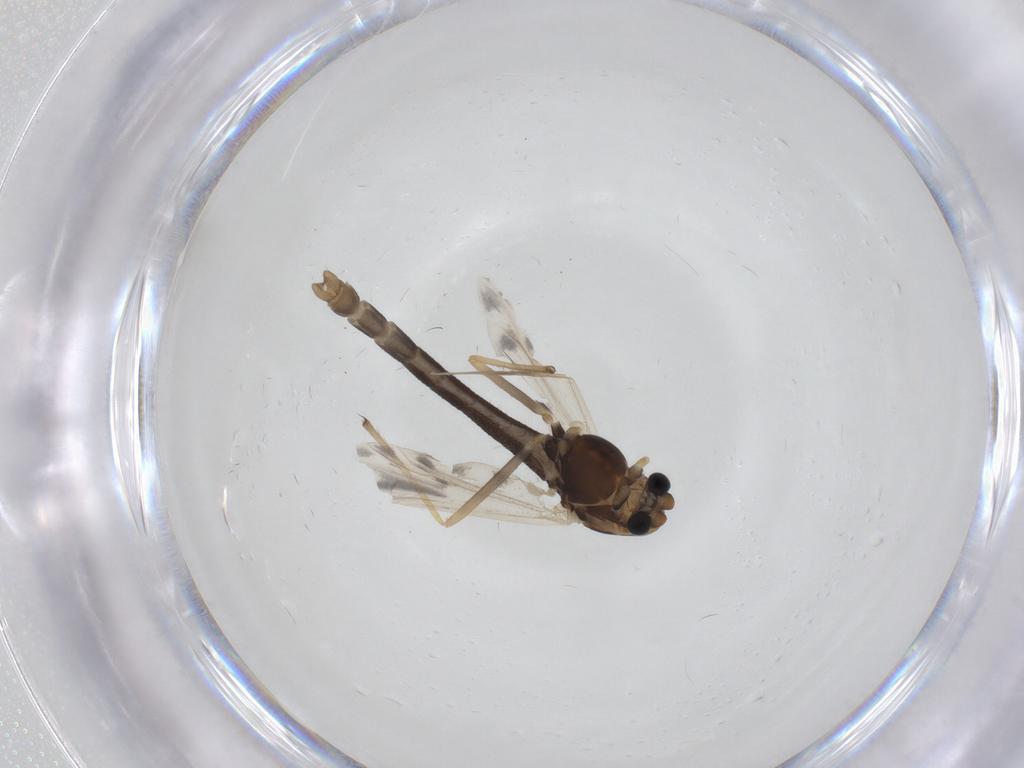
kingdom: Animalia
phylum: Arthropoda
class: Insecta
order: Diptera
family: Chironomidae
